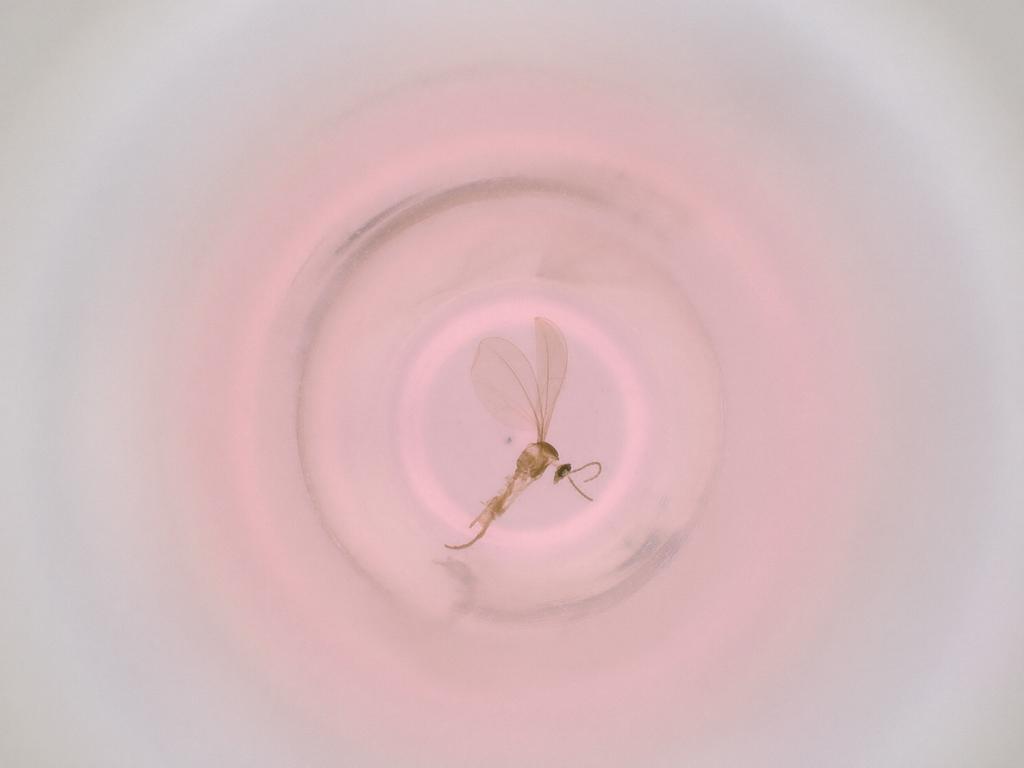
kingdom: Animalia
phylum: Arthropoda
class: Insecta
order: Diptera
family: Cecidomyiidae
